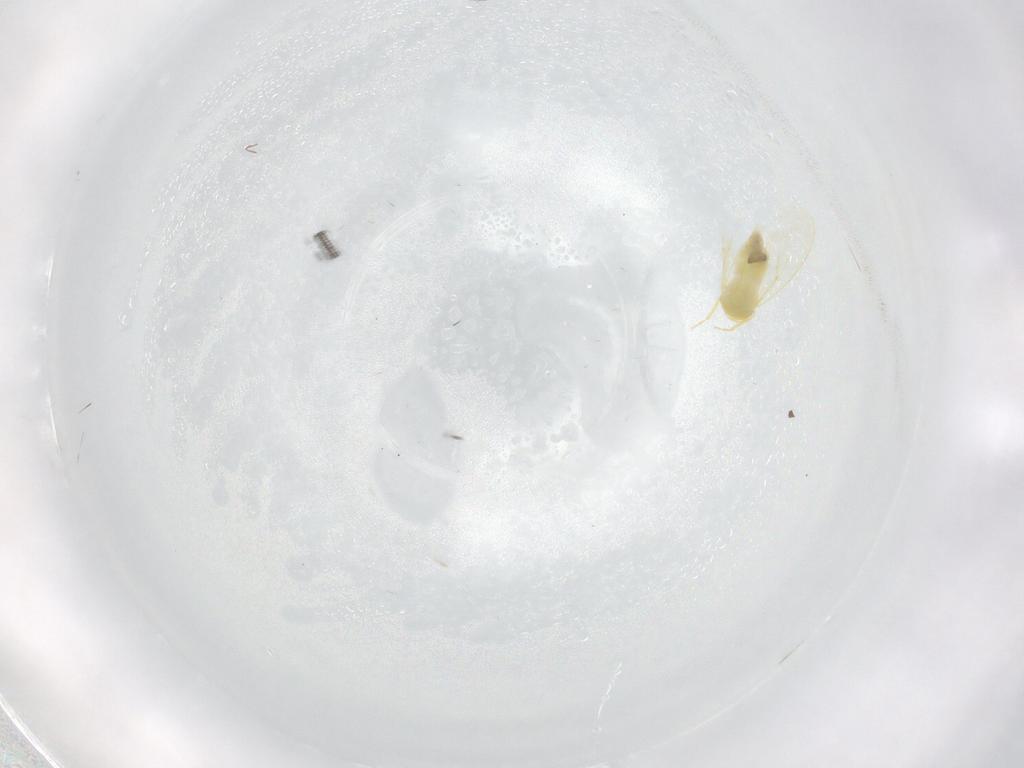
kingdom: Animalia
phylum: Arthropoda
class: Insecta
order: Hemiptera
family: Aleyrodidae
